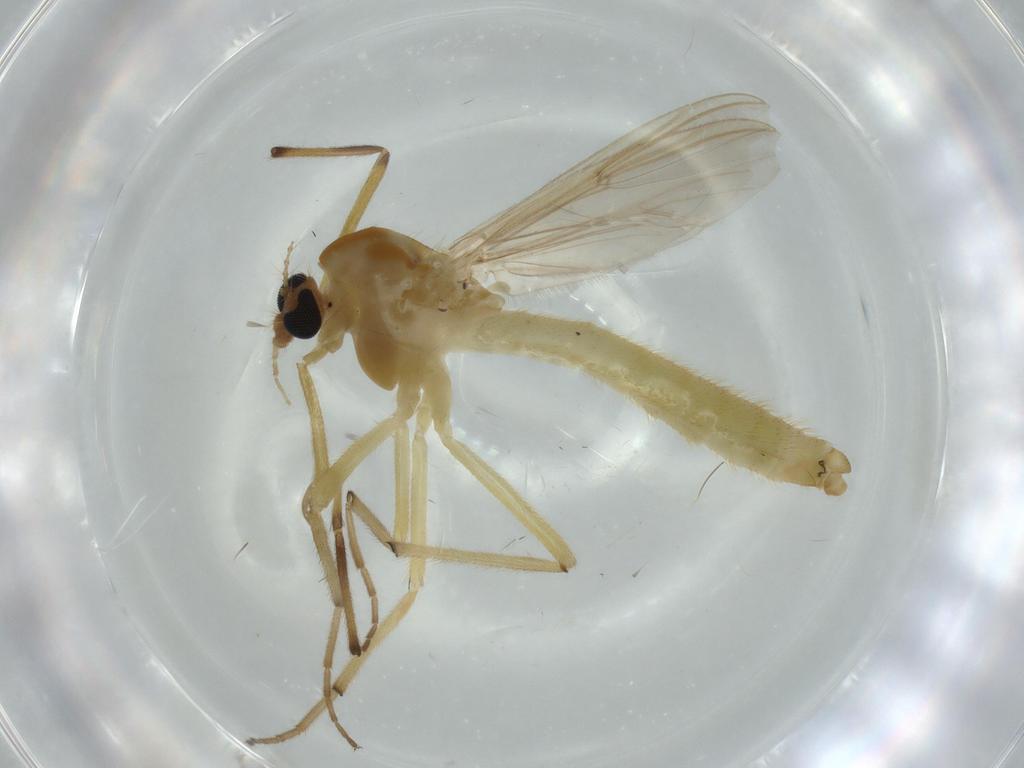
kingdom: Animalia
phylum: Arthropoda
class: Insecta
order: Diptera
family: Chironomidae
